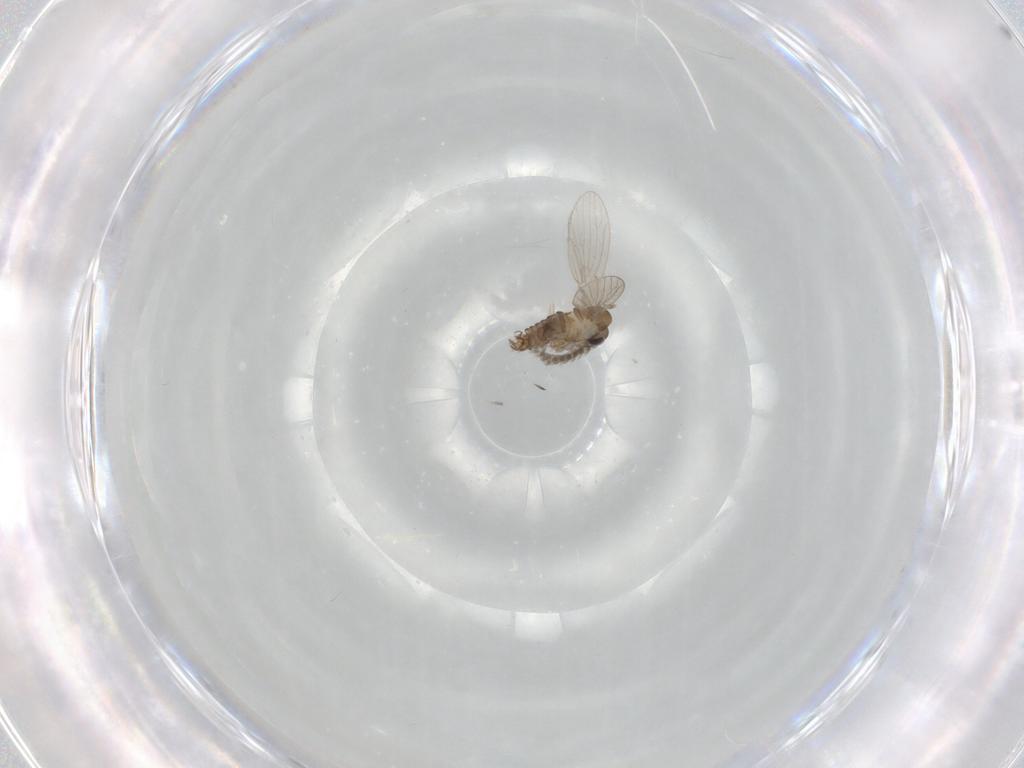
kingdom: Animalia
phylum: Arthropoda
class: Insecta
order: Diptera
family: Psychodidae
